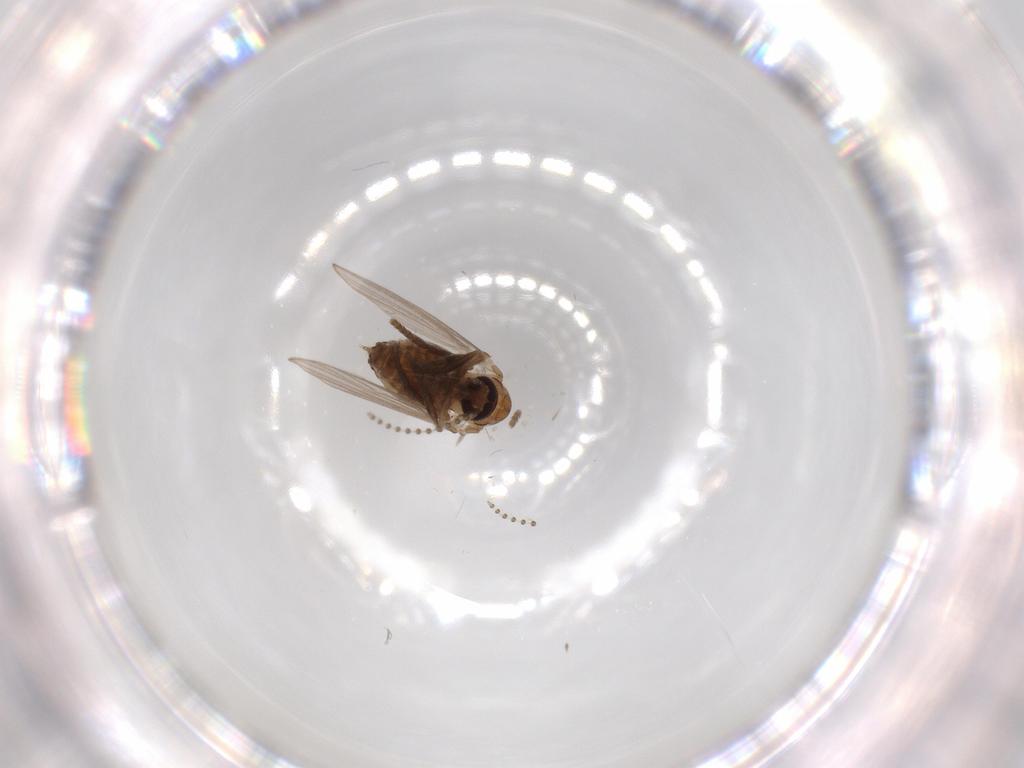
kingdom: Animalia
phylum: Arthropoda
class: Insecta
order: Diptera
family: Psychodidae
